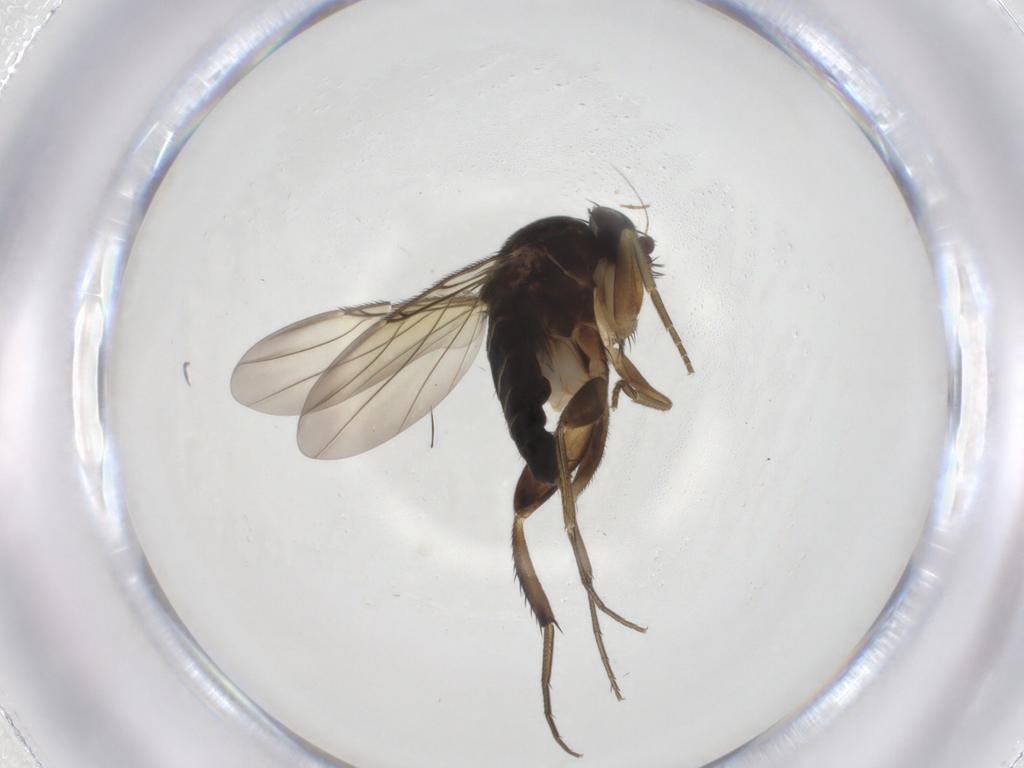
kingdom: Animalia
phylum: Arthropoda
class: Insecta
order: Diptera
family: Phoridae
